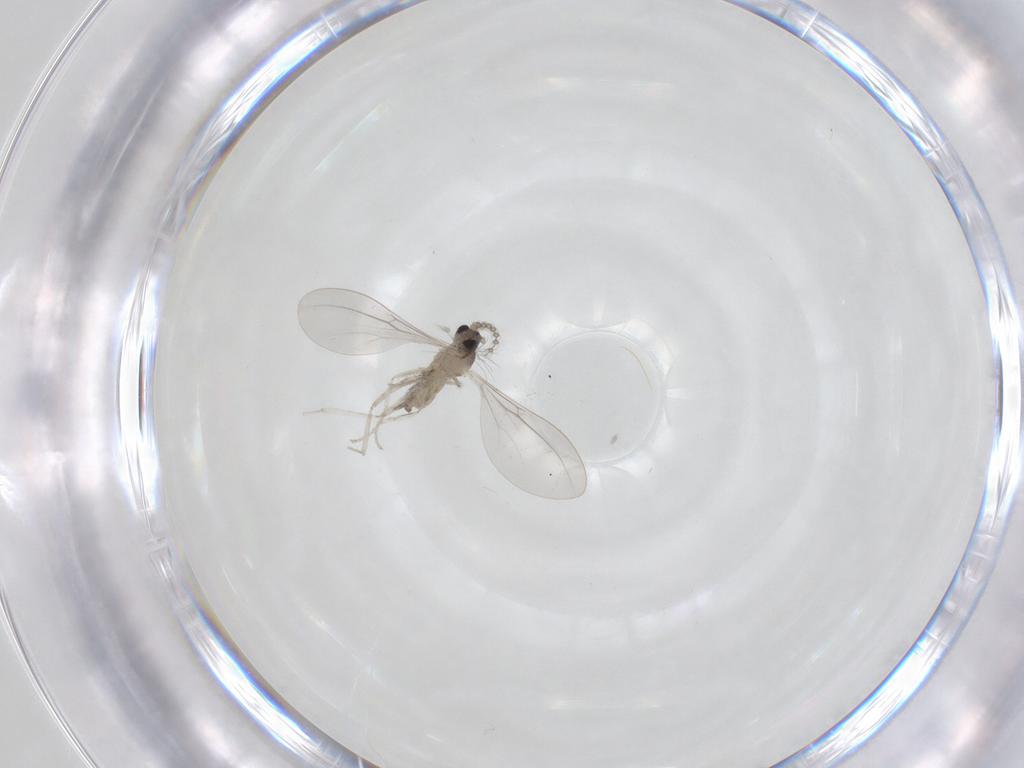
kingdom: Animalia
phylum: Arthropoda
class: Insecta
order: Diptera
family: Cecidomyiidae
